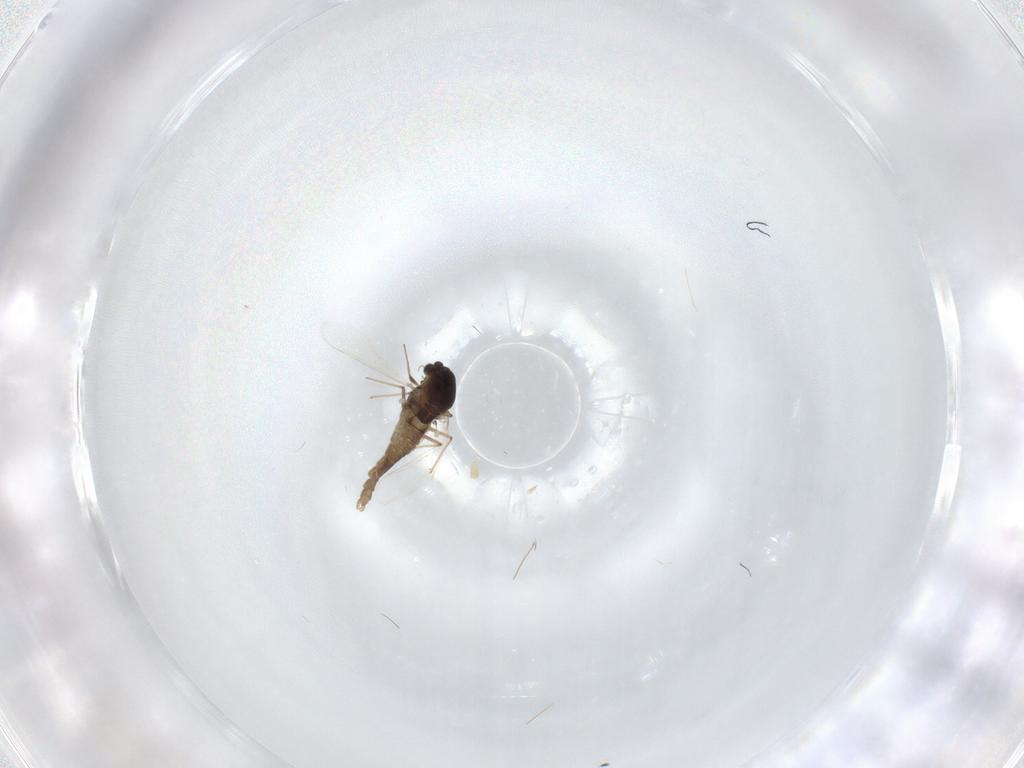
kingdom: Animalia
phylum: Arthropoda
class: Insecta
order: Diptera
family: Chironomidae
